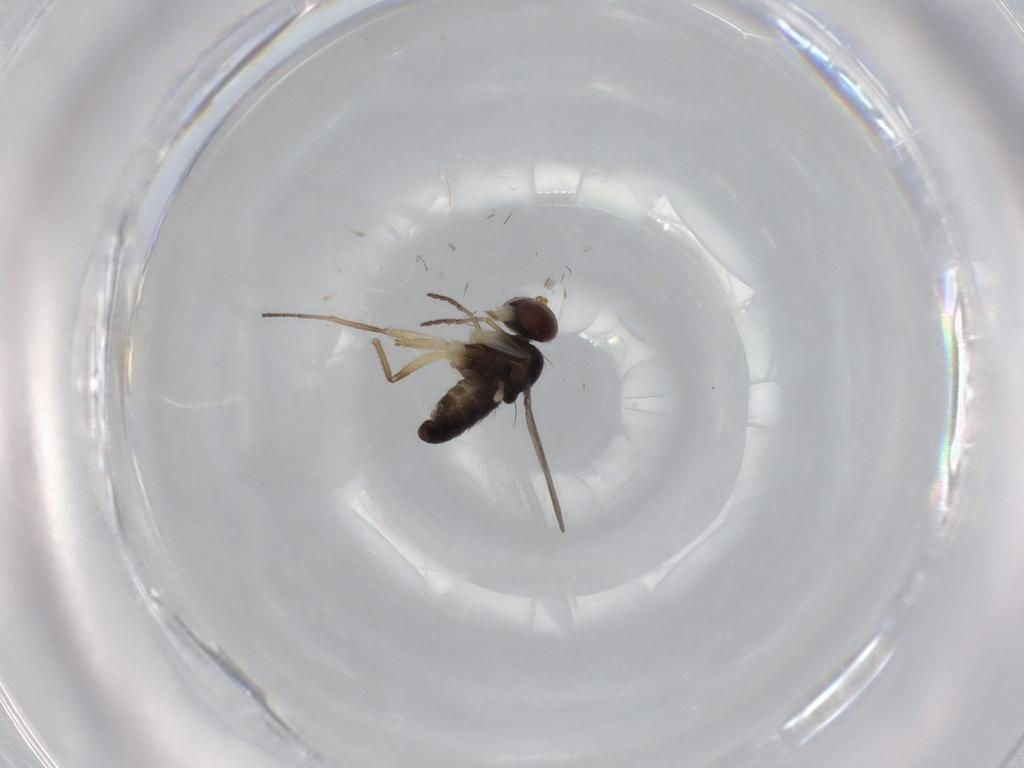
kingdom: Animalia
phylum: Arthropoda
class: Insecta
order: Diptera
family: Dolichopodidae
